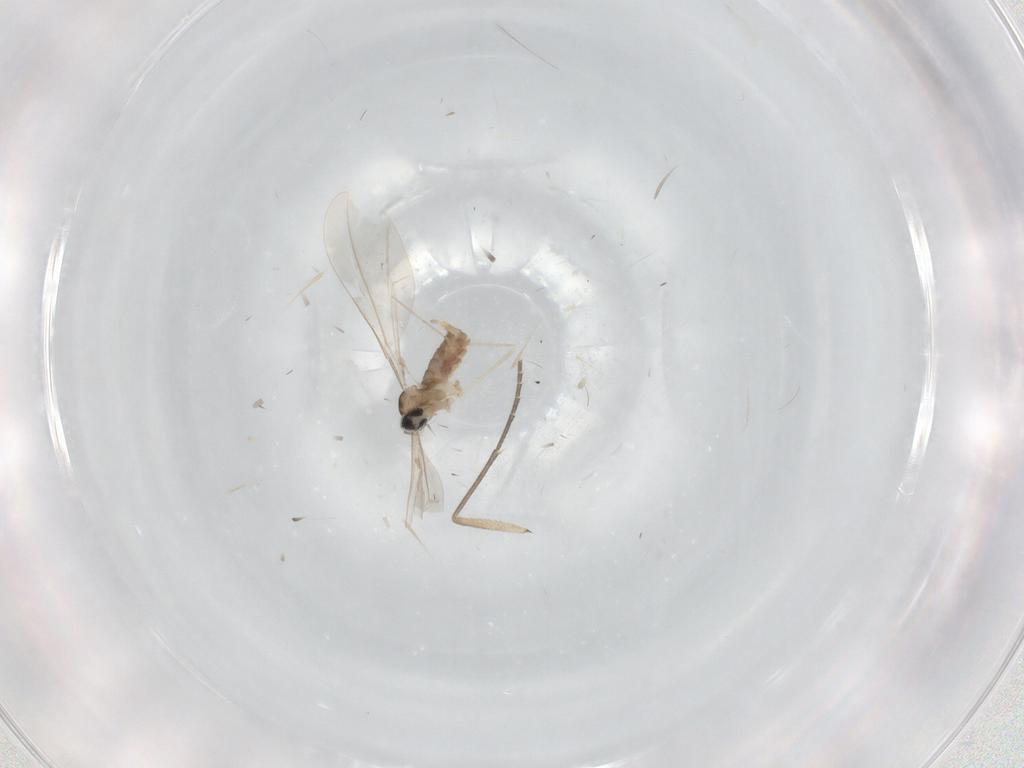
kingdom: Animalia
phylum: Arthropoda
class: Insecta
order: Diptera
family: Cecidomyiidae
